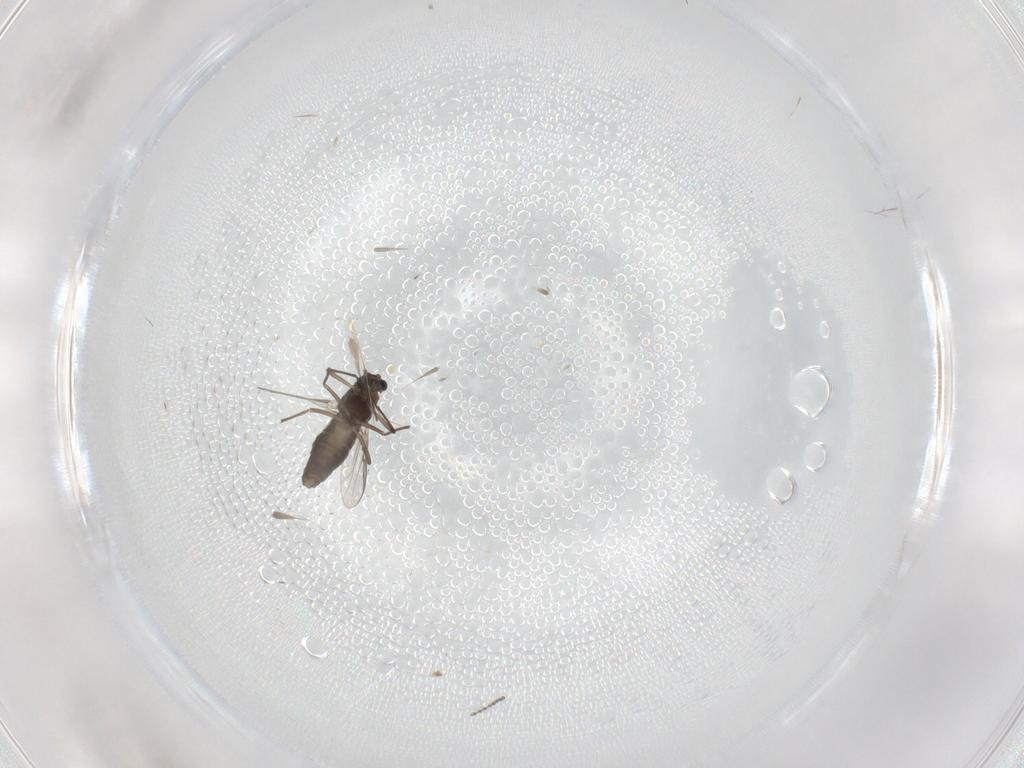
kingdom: Animalia
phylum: Arthropoda
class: Insecta
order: Diptera
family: Chironomidae
